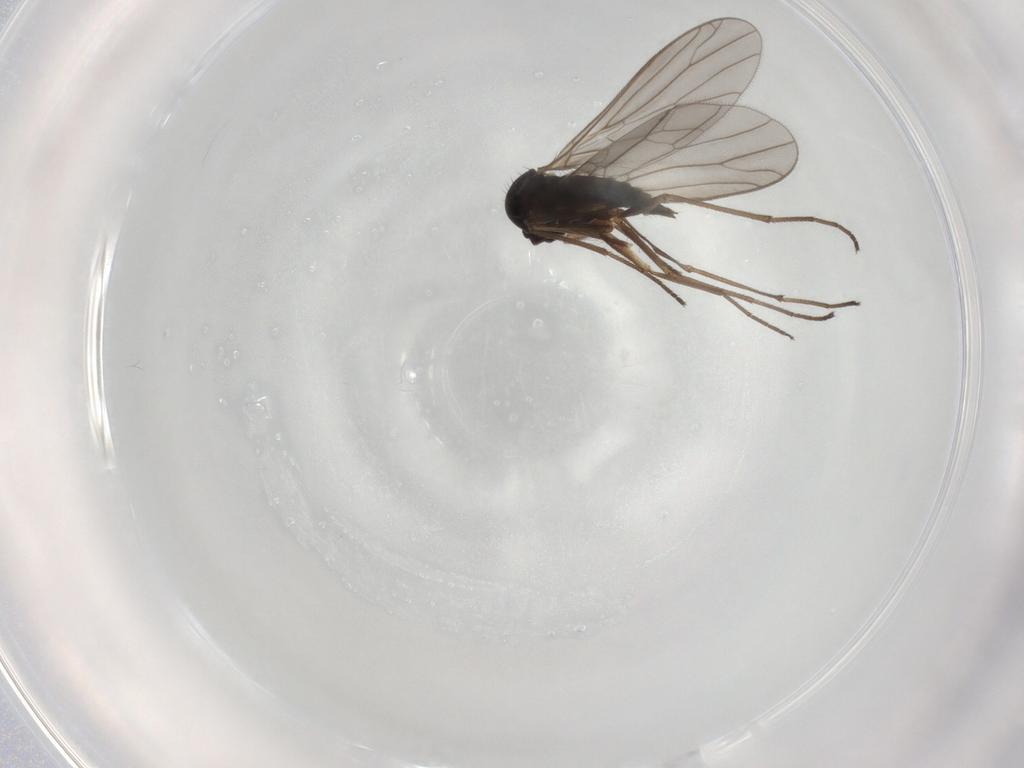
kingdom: Animalia
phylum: Arthropoda
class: Insecta
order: Diptera
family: Empididae
